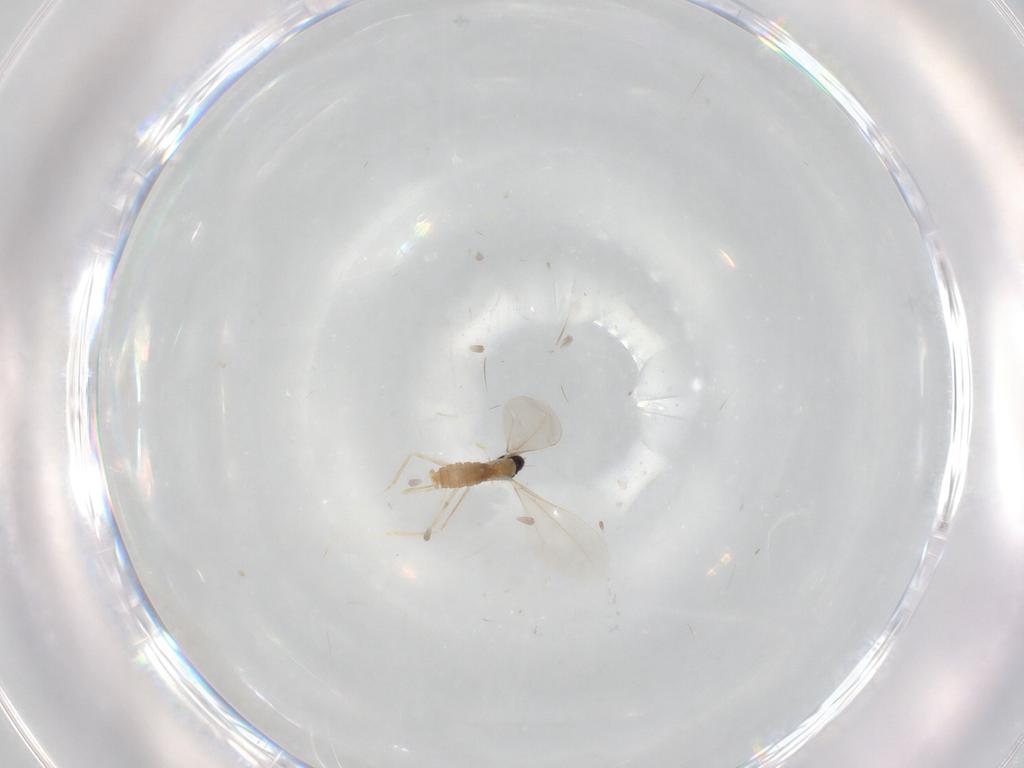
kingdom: Animalia
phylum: Arthropoda
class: Insecta
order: Diptera
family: Cecidomyiidae
